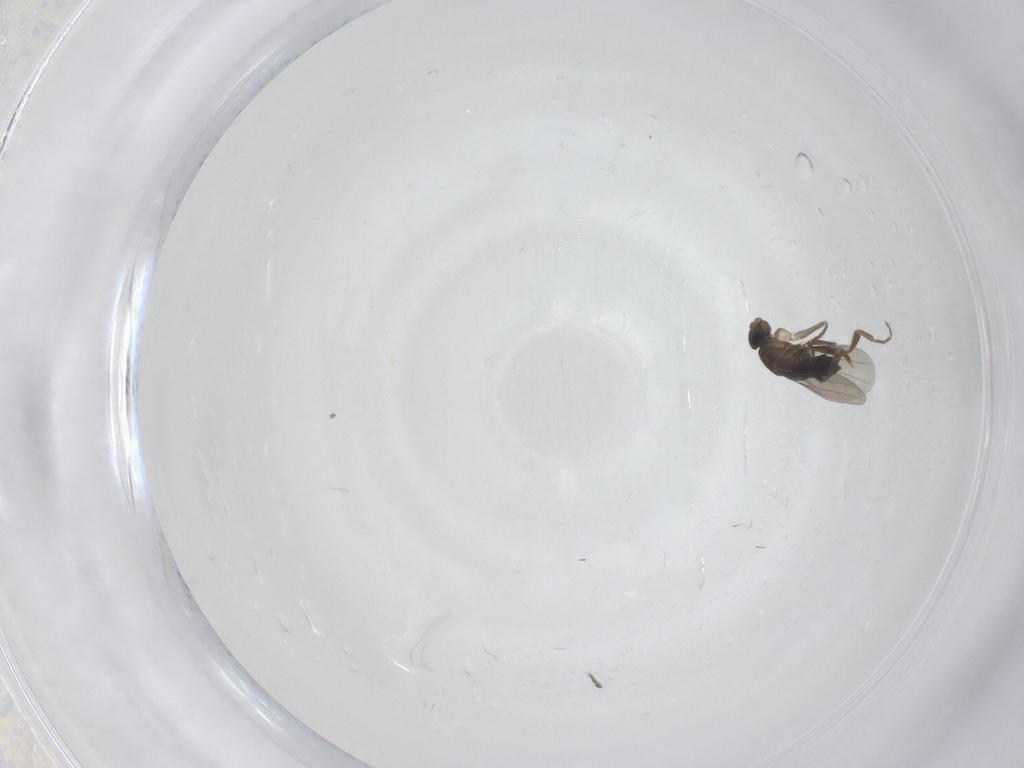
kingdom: Animalia
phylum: Arthropoda
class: Insecta
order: Diptera
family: Phoridae
